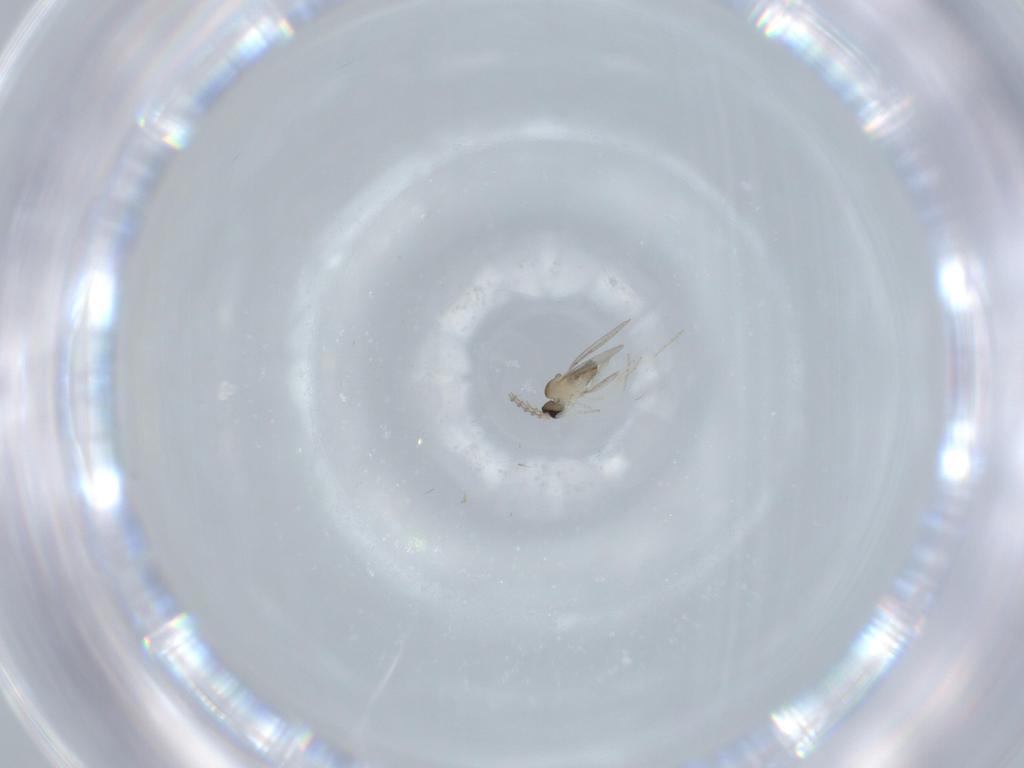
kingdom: Animalia
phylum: Arthropoda
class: Insecta
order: Diptera
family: Cecidomyiidae
